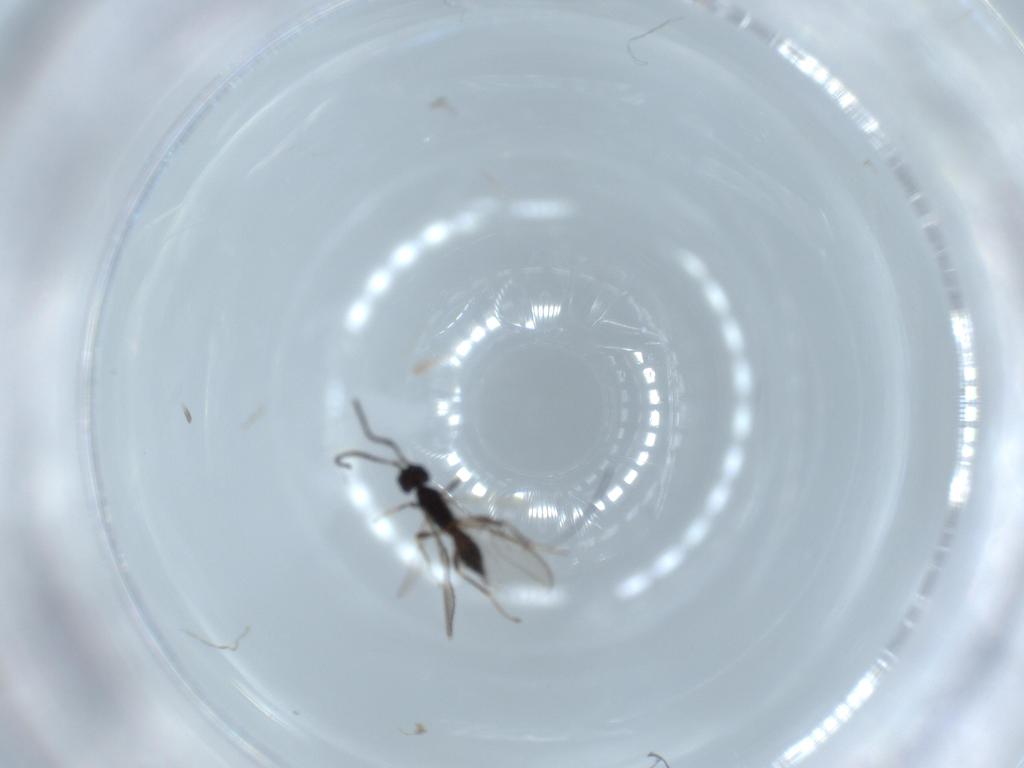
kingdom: Animalia
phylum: Arthropoda
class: Insecta
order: Hymenoptera
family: Braconidae
